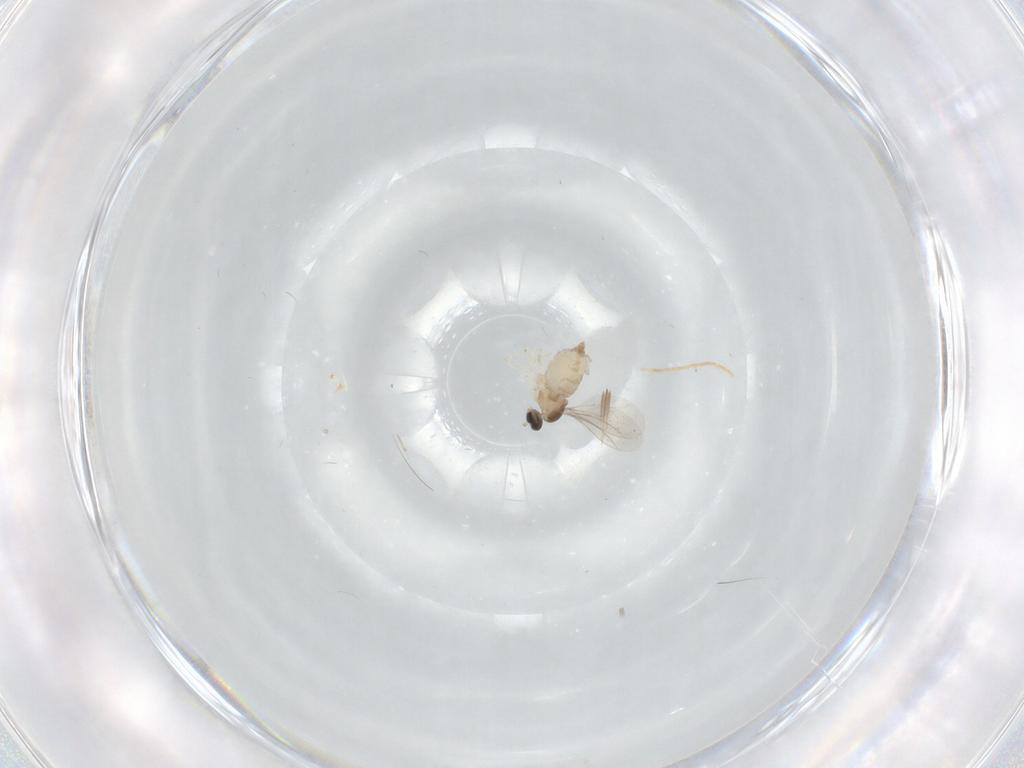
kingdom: Animalia
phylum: Arthropoda
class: Insecta
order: Diptera
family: Cecidomyiidae
